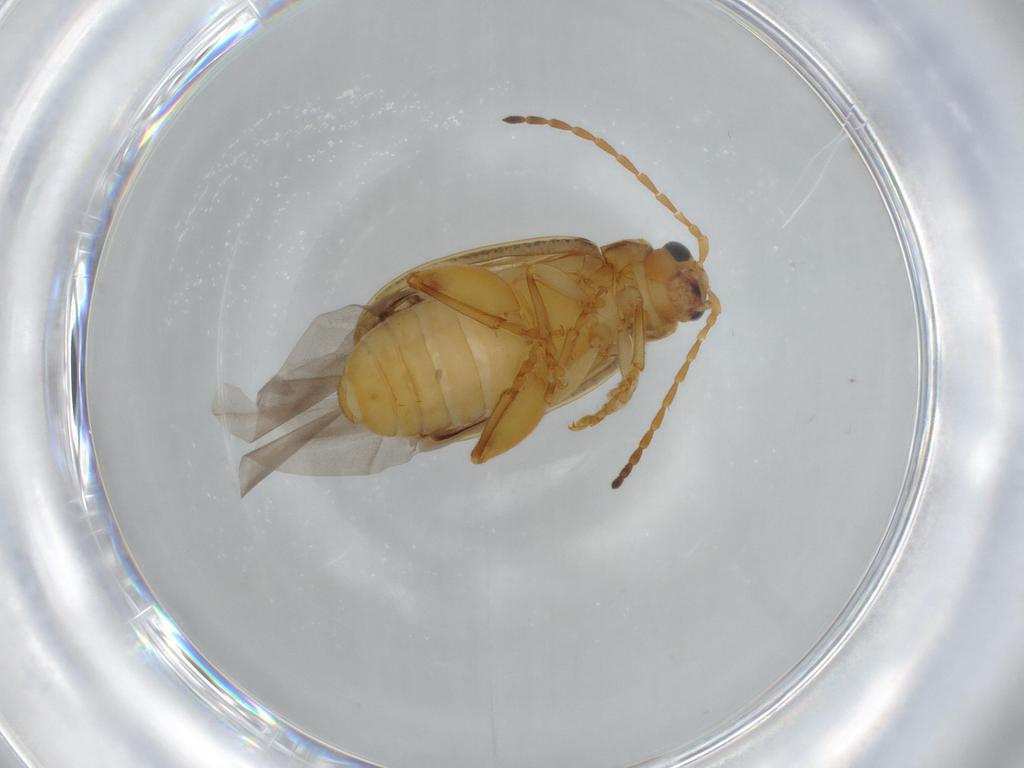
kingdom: Animalia
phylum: Arthropoda
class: Insecta
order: Coleoptera
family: Chrysomelidae
